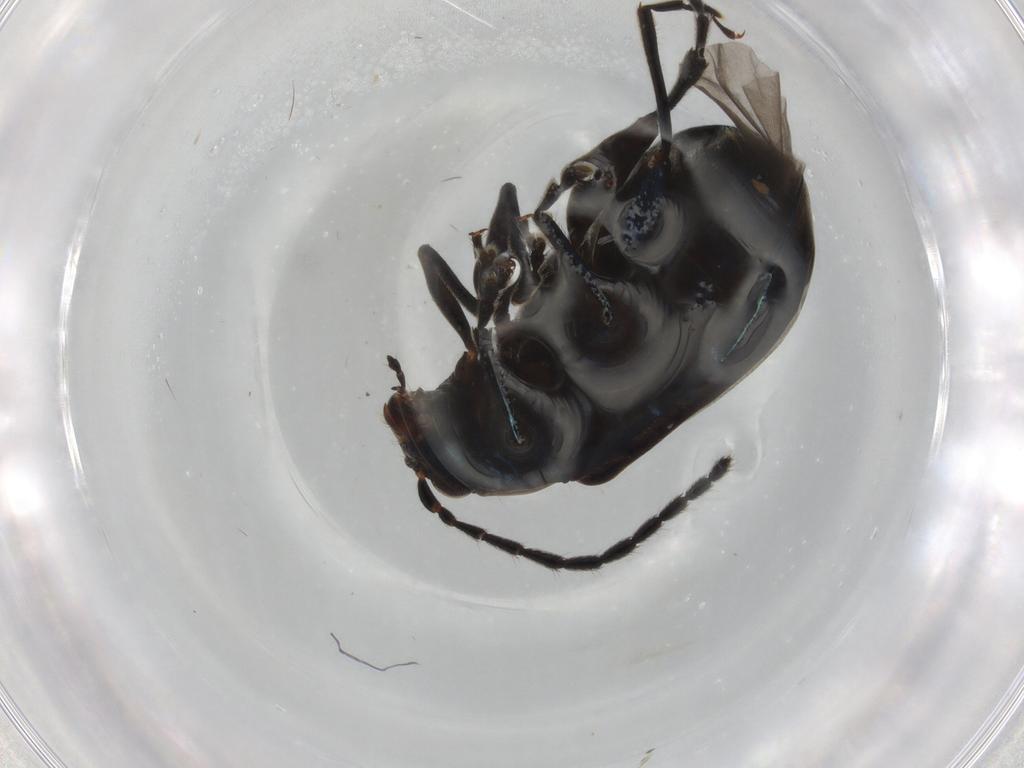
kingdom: Animalia
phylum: Arthropoda
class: Insecta
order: Coleoptera
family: Chrysomelidae
